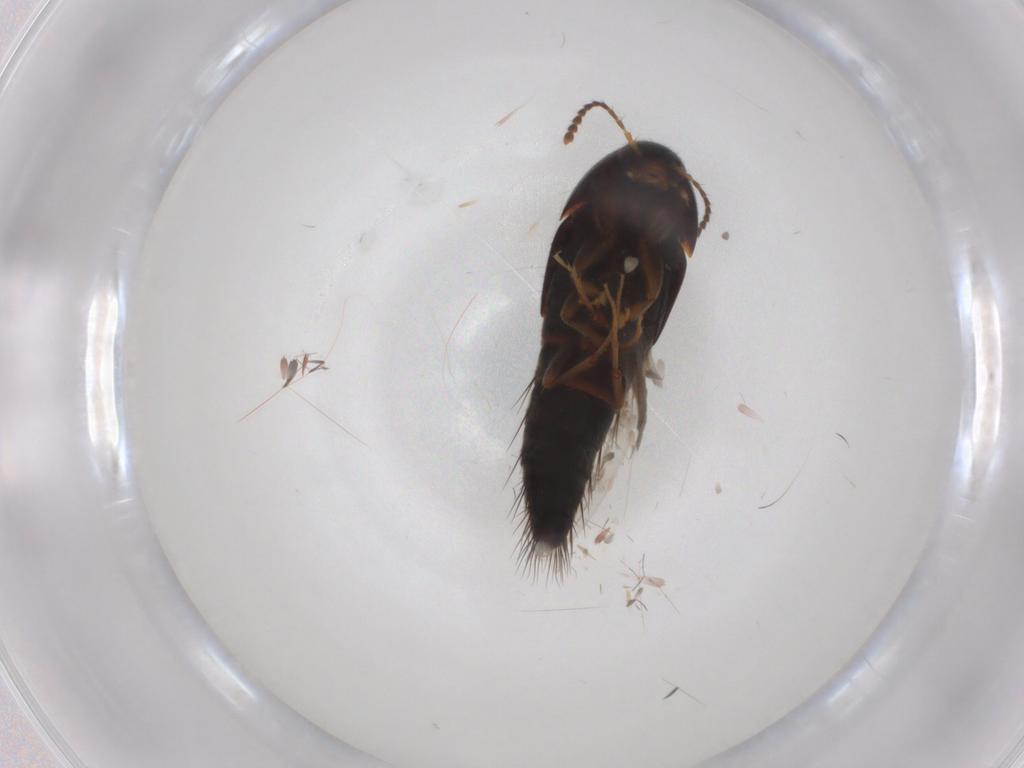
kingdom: Animalia
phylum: Arthropoda
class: Insecta
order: Coleoptera
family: Staphylinidae
